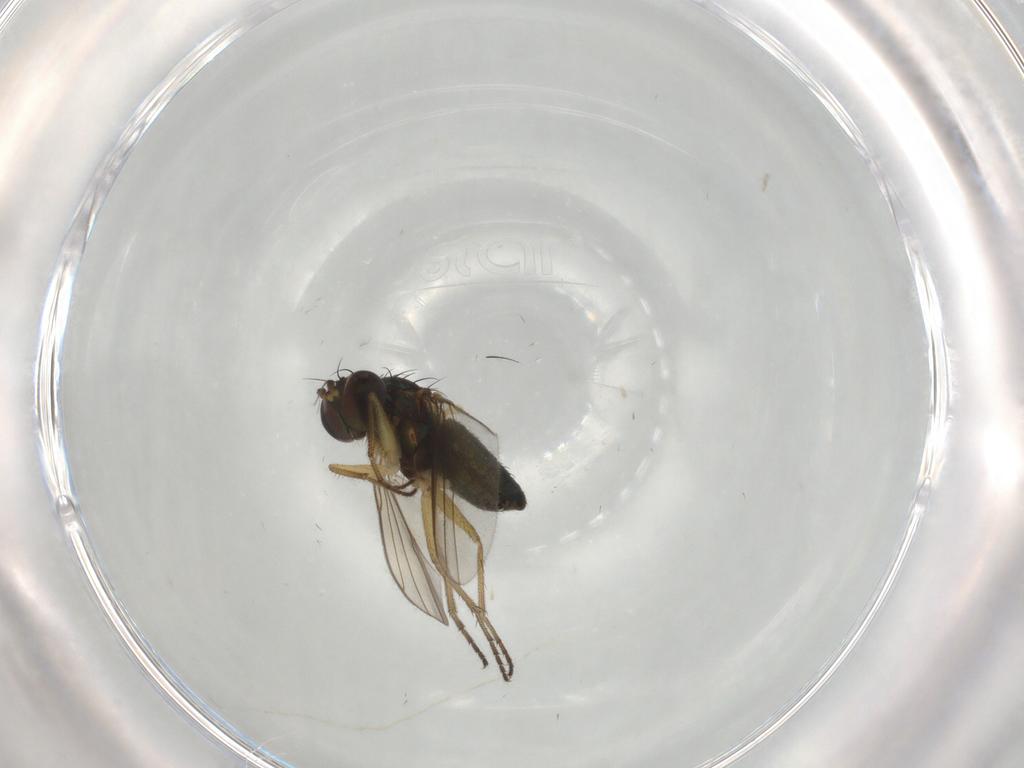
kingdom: Animalia
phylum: Arthropoda
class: Insecta
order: Diptera
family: Dolichopodidae
